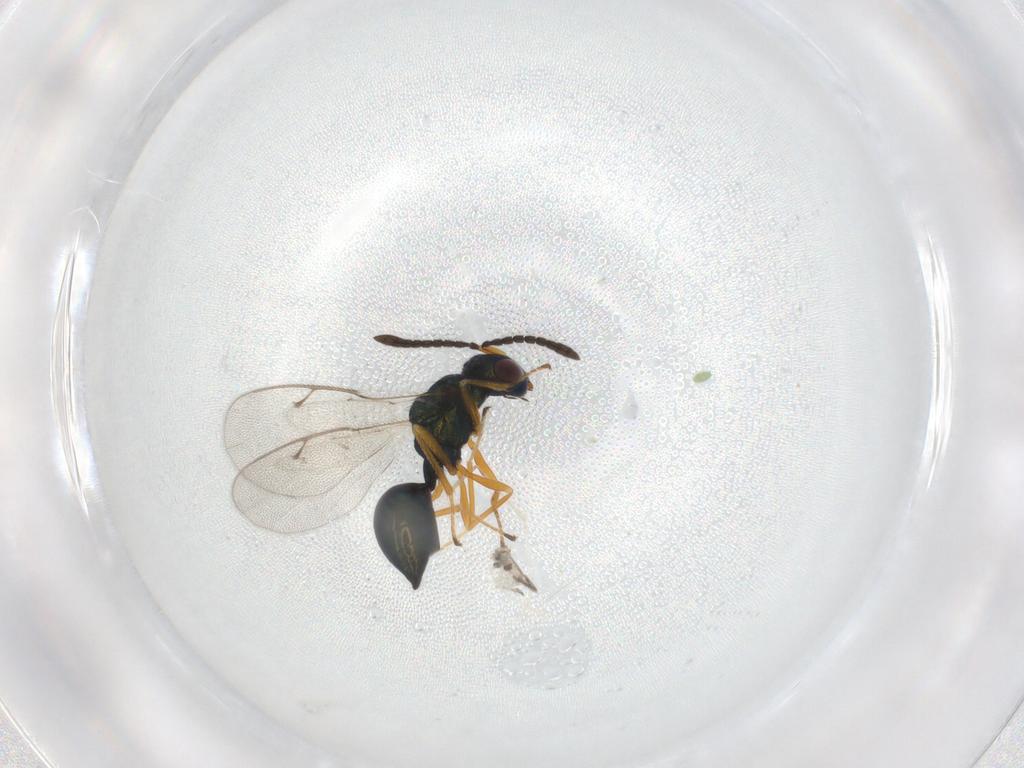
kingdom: Animalia
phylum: Arthropoda
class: Insecta
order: Hymenoptera
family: Pteromalidae
